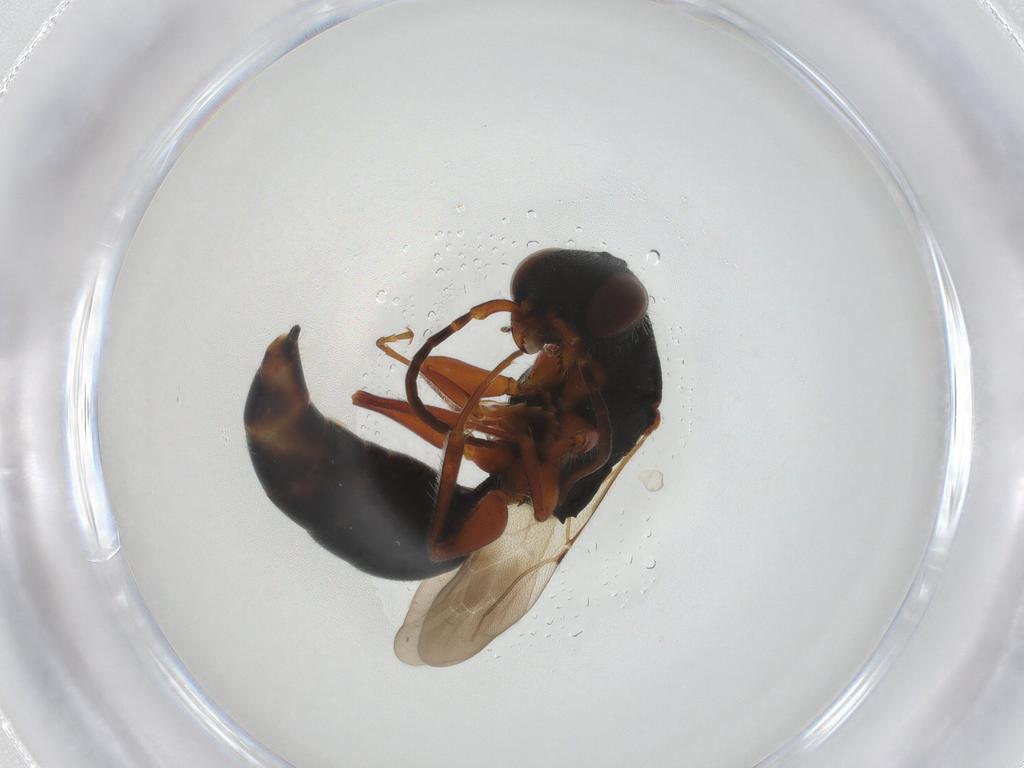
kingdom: Animalia
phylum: Arthropoda
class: Insecta
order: Hymenoptera
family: Bethylidae
